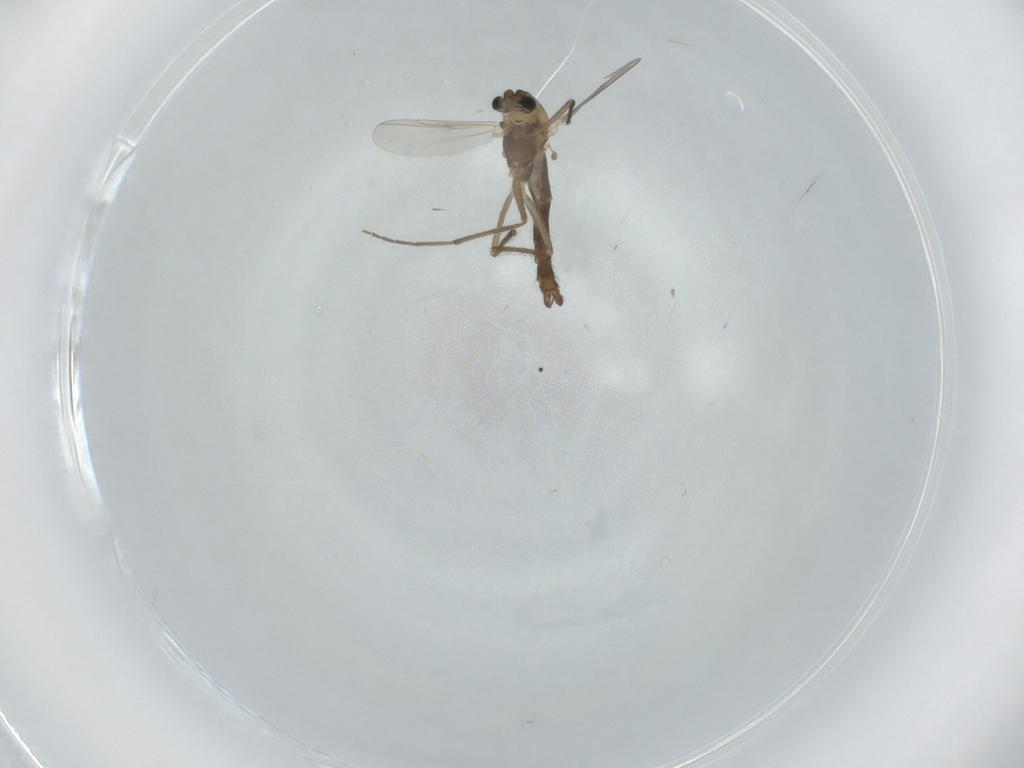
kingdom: Animalia
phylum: Arthropoda
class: Insecta
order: Diptera
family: Chironomidae
